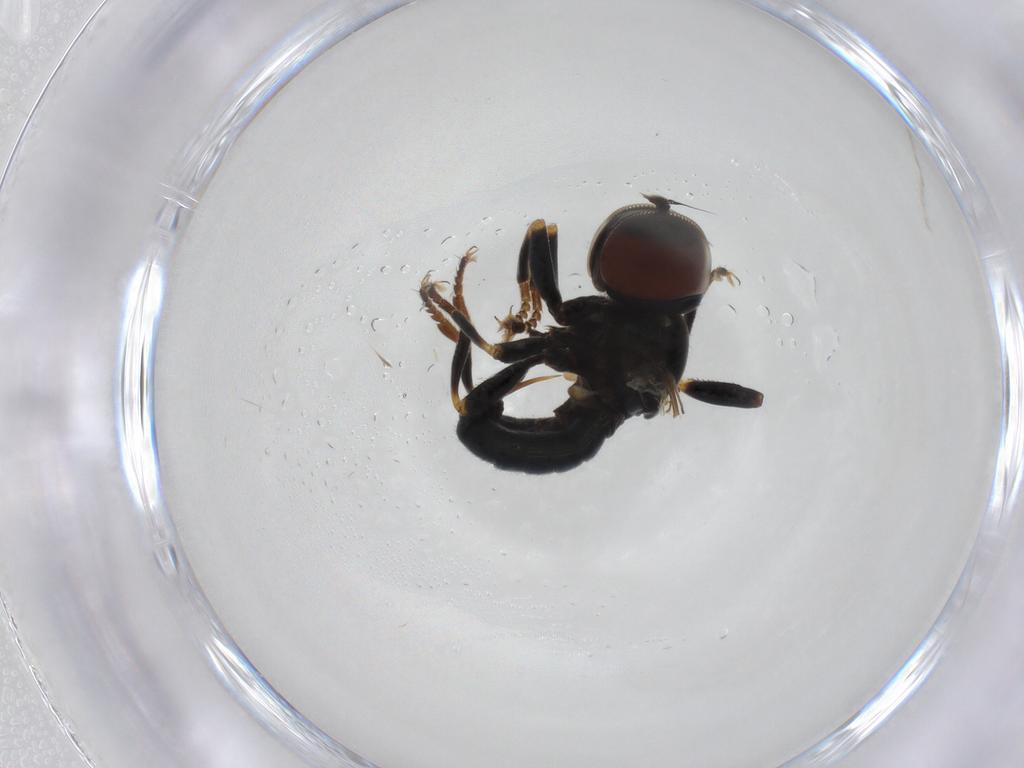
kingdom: Animalia
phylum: Arthropoda
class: Insecta
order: Diptera
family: Pipunculidae
